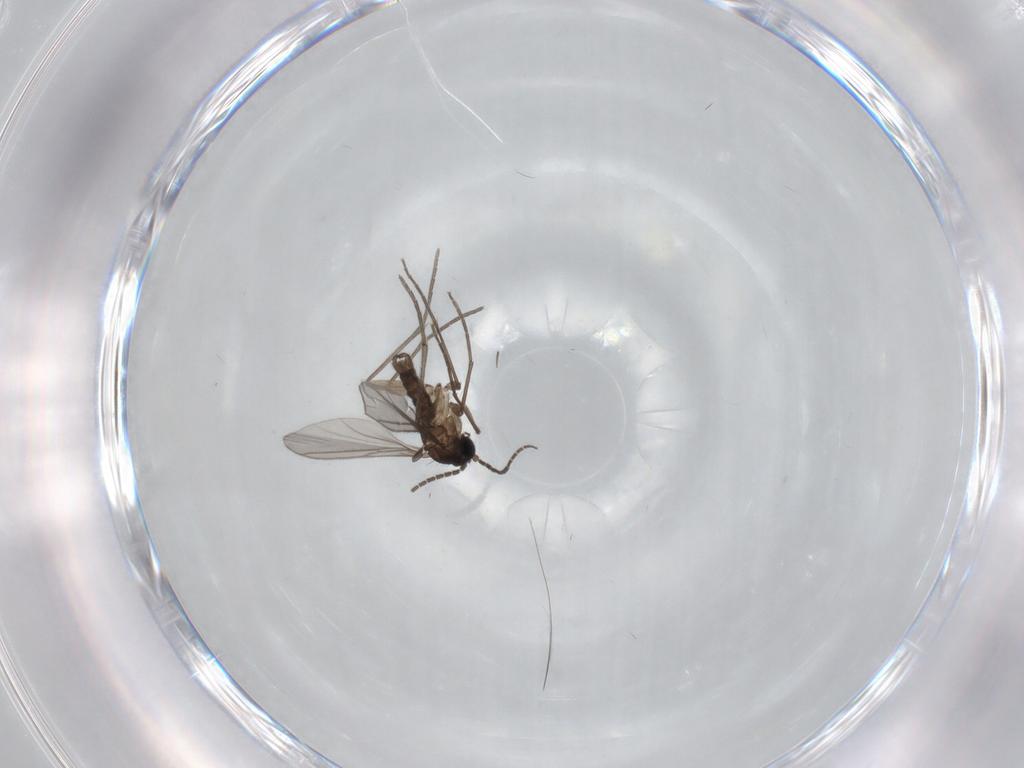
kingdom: Animalia
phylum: Arthropoda
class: Insecta
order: Diptera
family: Sciaridae
